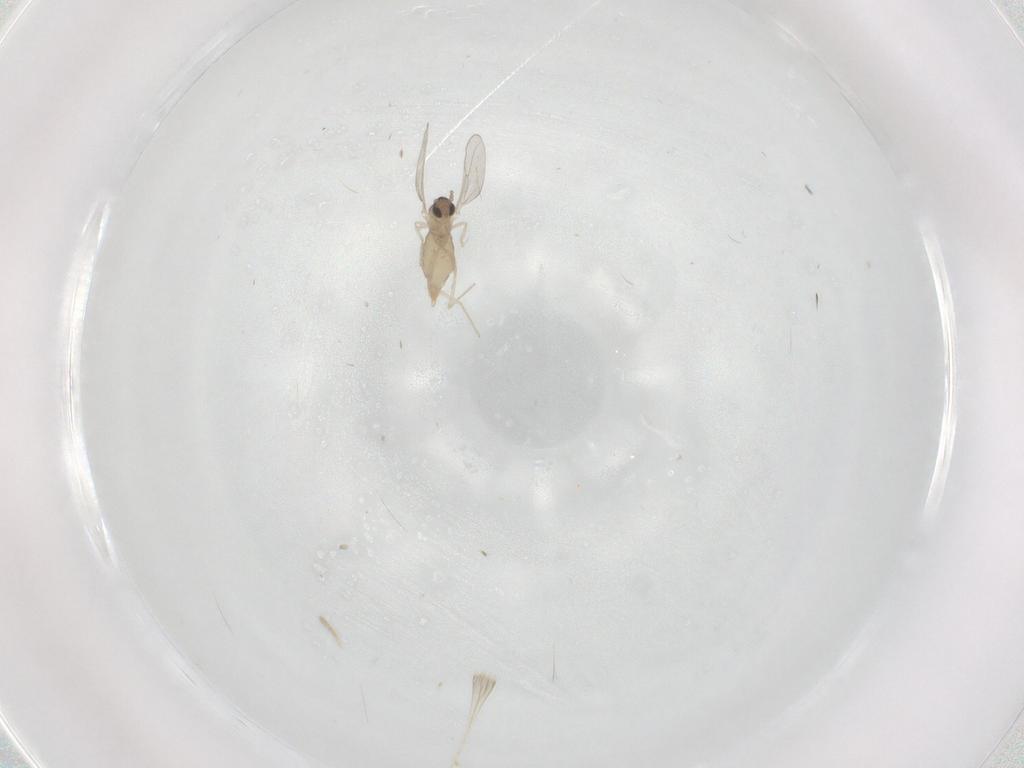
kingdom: Animalia
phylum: Arthropoda
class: Insecta
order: Diptera
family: Cecidomyiidae
